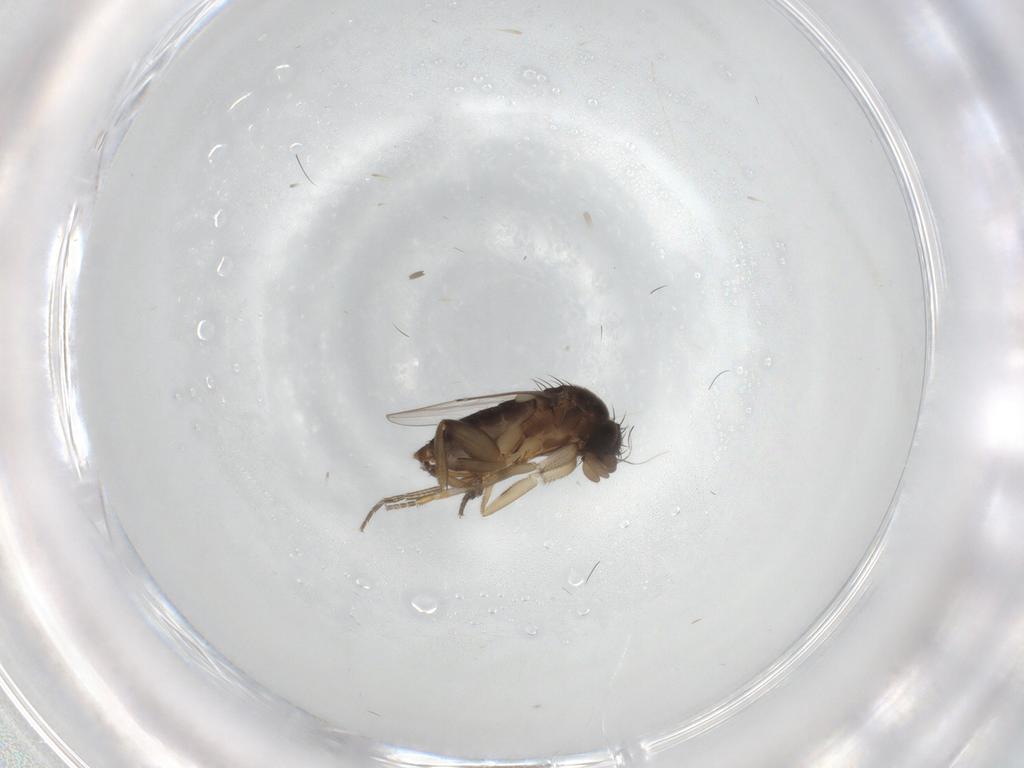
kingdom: Animalia
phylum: Arthropoda
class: Insecta
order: Diptera
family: Phoridae
